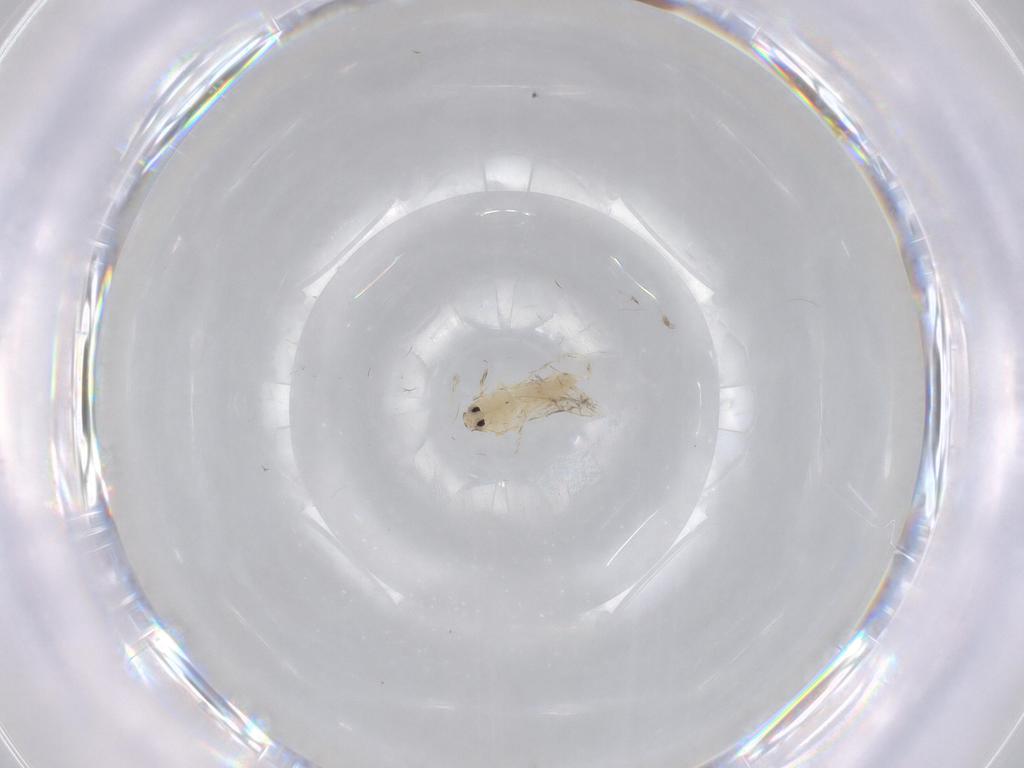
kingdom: Animalia
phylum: Arthropoda
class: Insecta
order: Hemiptera
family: Aleyrodidae
